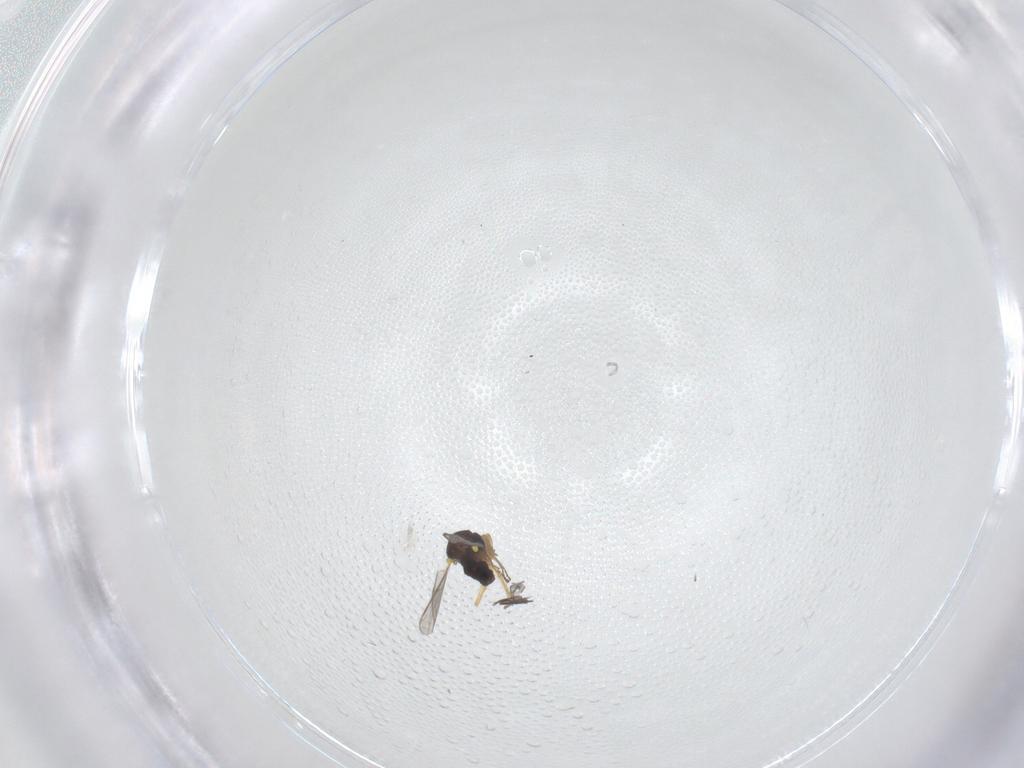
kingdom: Animalia
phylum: Arthropoda
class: Insecta
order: Diptera
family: Ceratopogonidae
